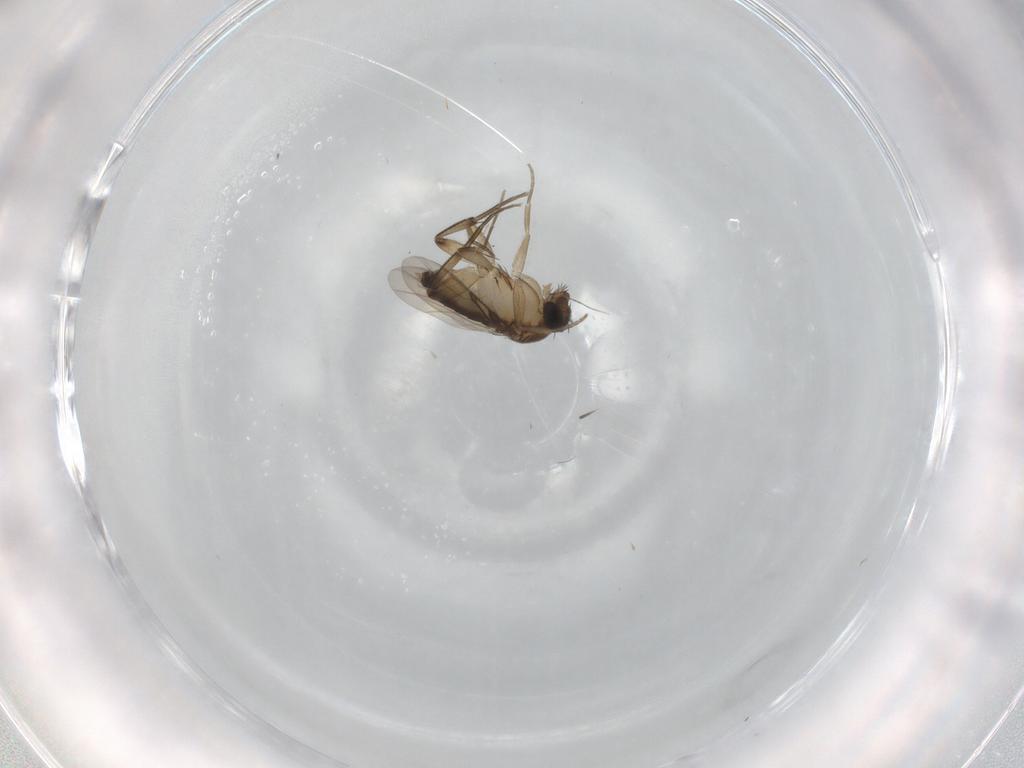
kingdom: Animalia
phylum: Arthropoda
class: Insecta
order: Diptera
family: Phoridae
